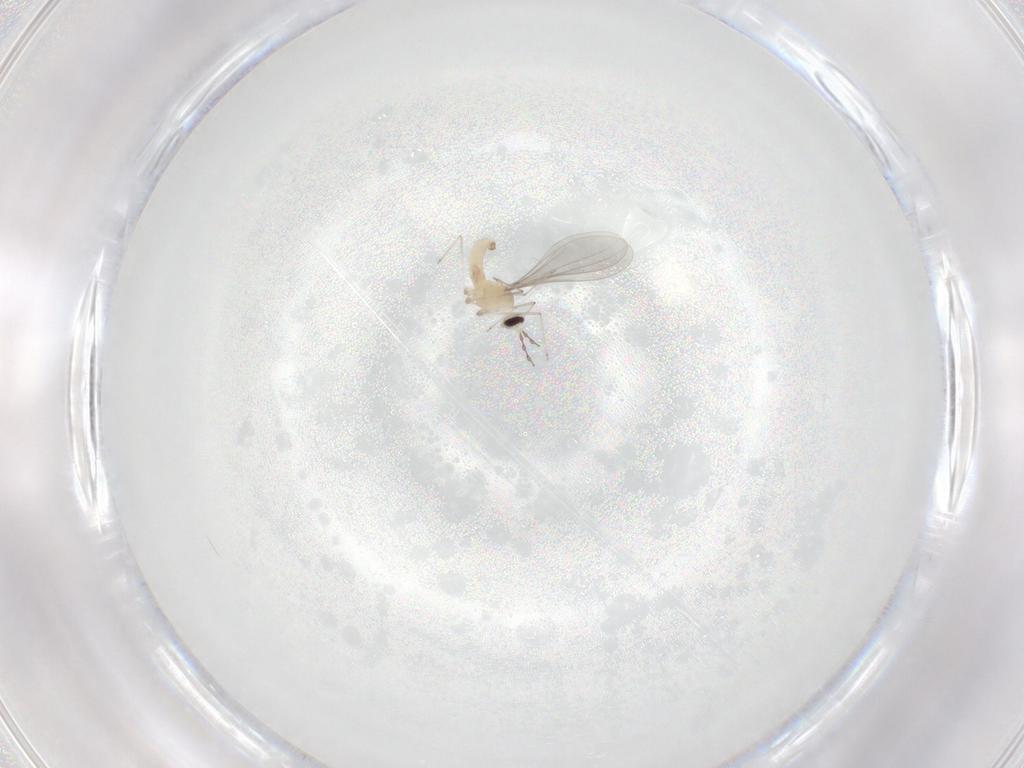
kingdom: Animalia
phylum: Arthropoda
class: Insecta
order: Diptera
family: Cecidomyiidae
